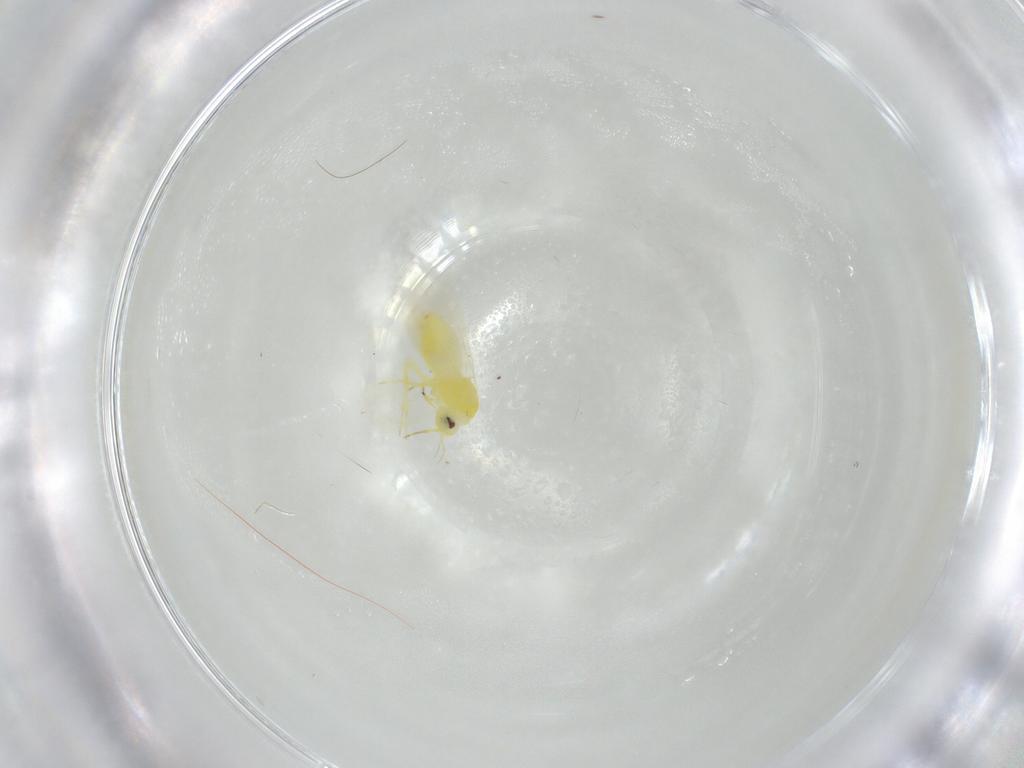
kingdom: Animalia
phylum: Arthropoda
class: Insecta
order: Hemiptera
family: Aleyrodidae
